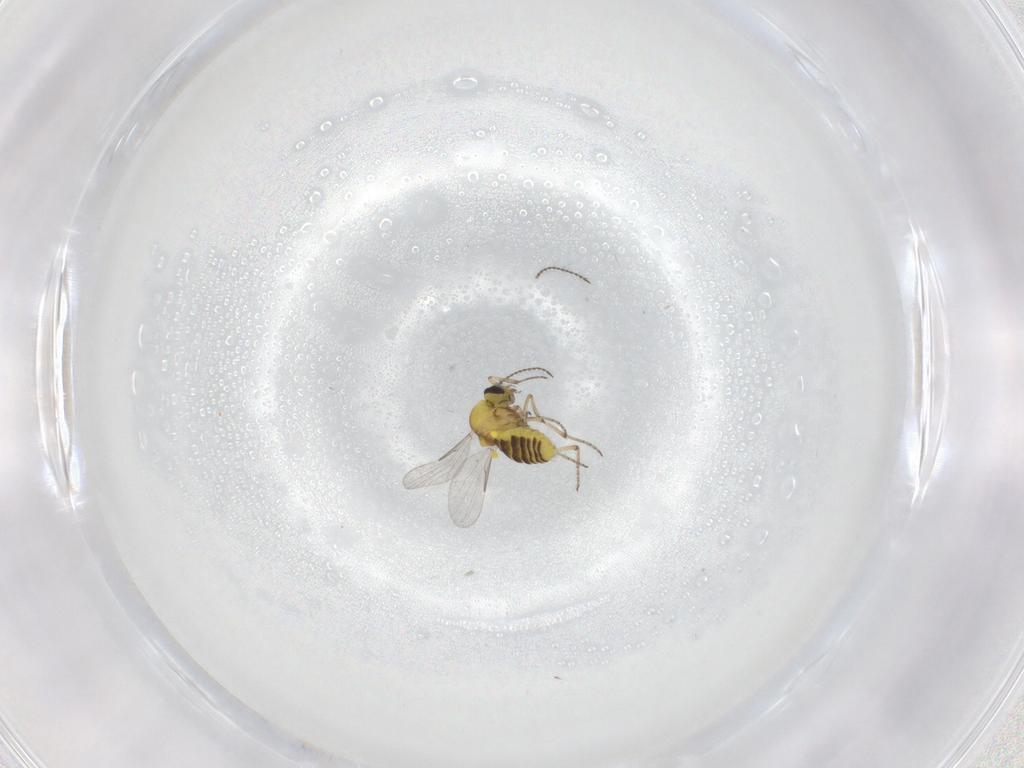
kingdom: Animalia
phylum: Arthropoda
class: Insecta
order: Diptera
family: Ceratopogonidae
